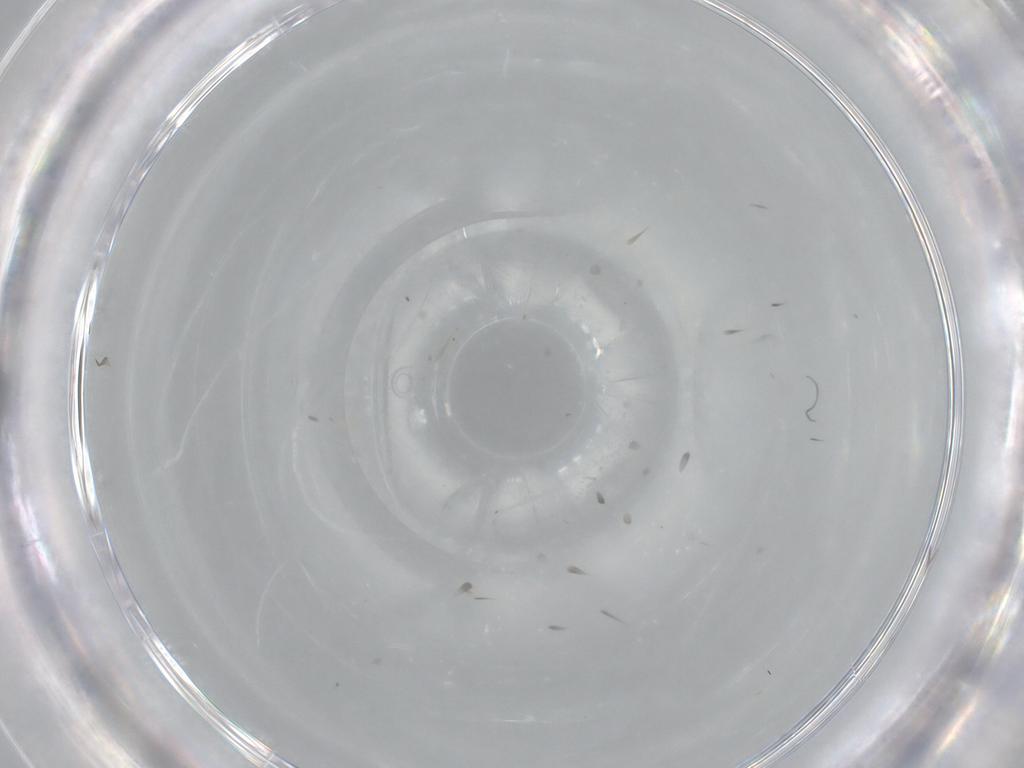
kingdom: Animalia
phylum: Arthropoda
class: Insecta
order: Blattodea
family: Ectobiidae
